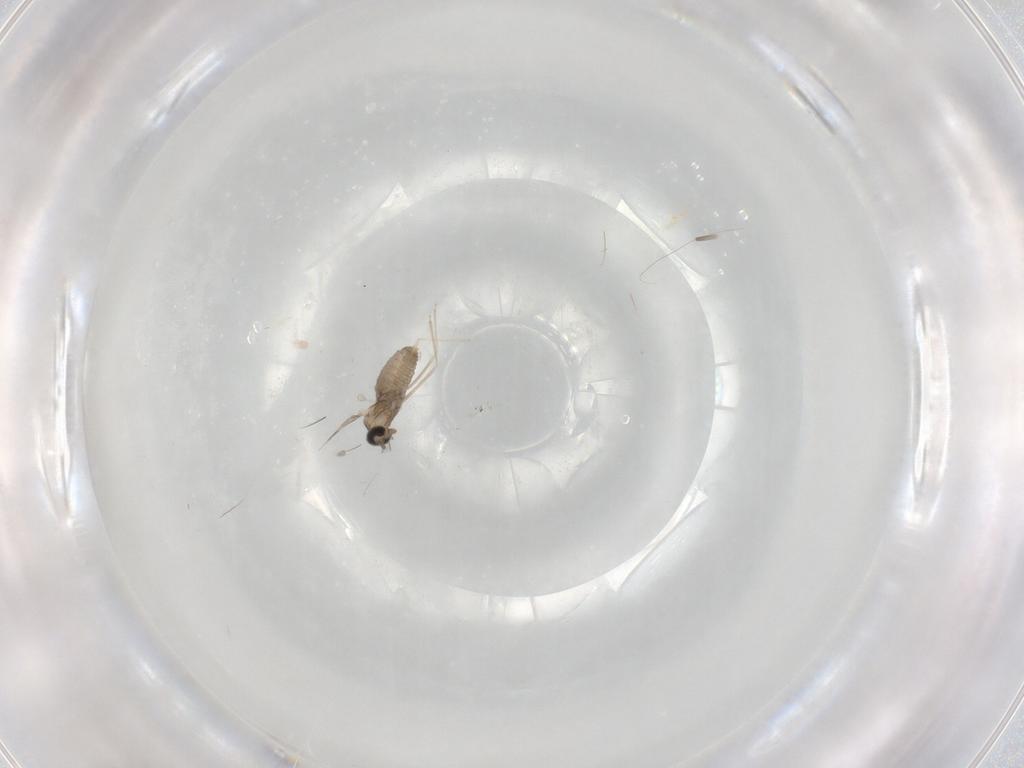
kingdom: Animalia
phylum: Arthropoda
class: Insecta
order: Diptera
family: Cecidomyiidae
